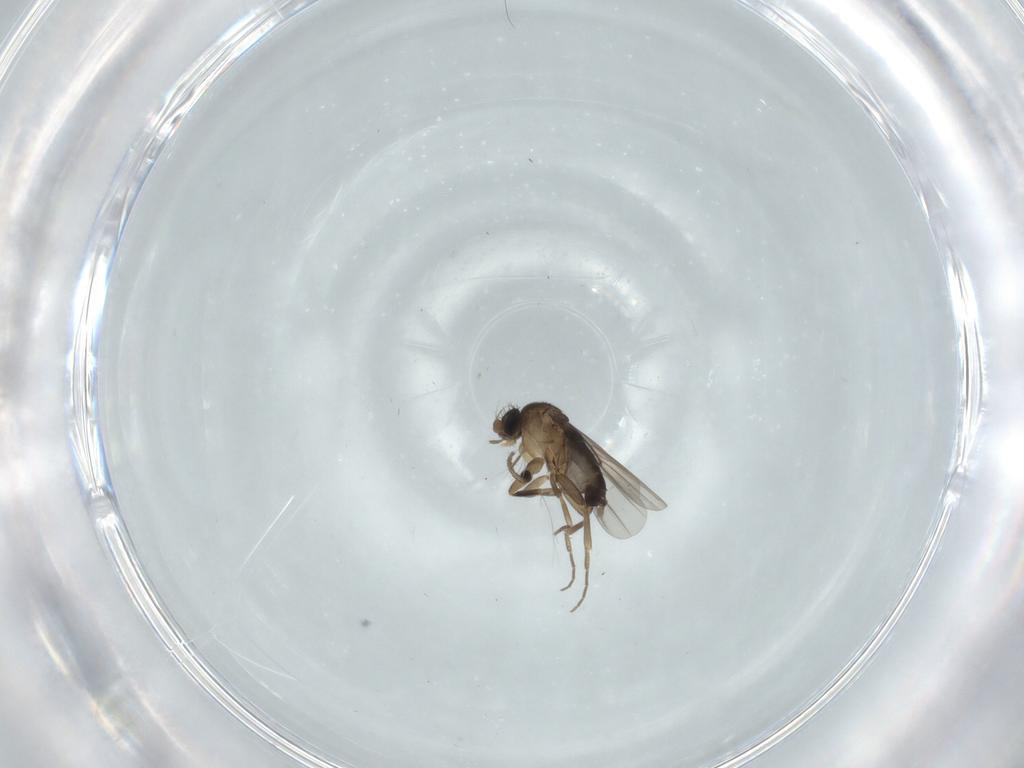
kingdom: Animalia
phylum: Arthropoda
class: Insecta
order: Diptera
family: Phoridae
